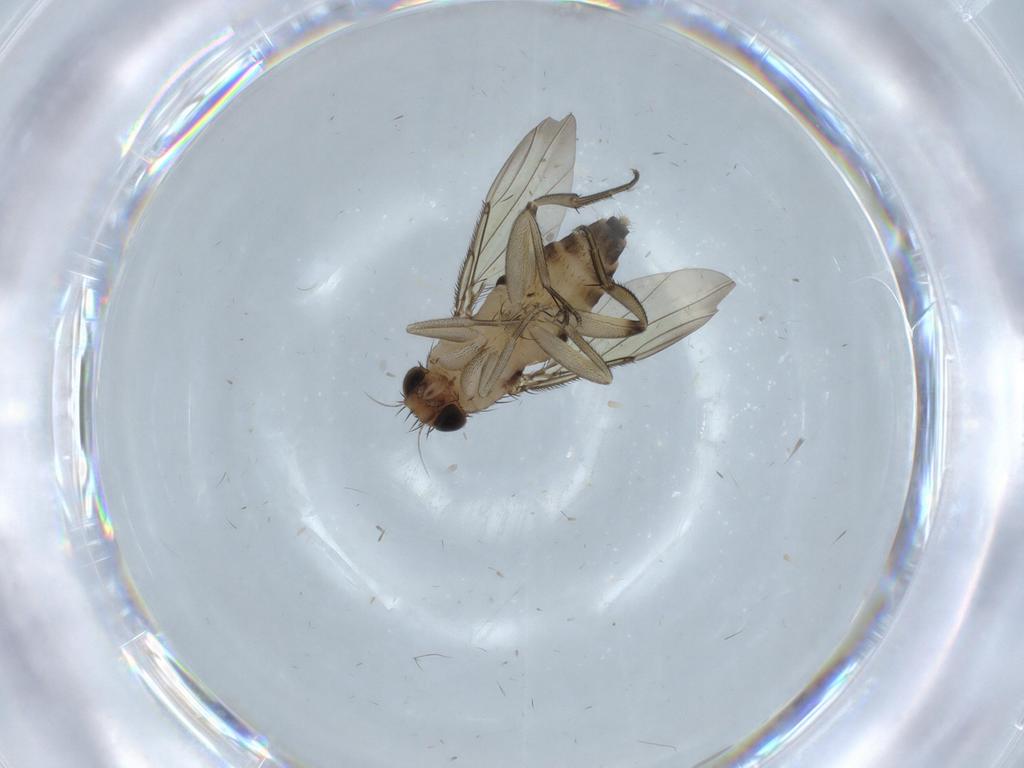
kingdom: Animalia
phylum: Arthropoda
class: Insecta
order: Diptera
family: Phoridae
